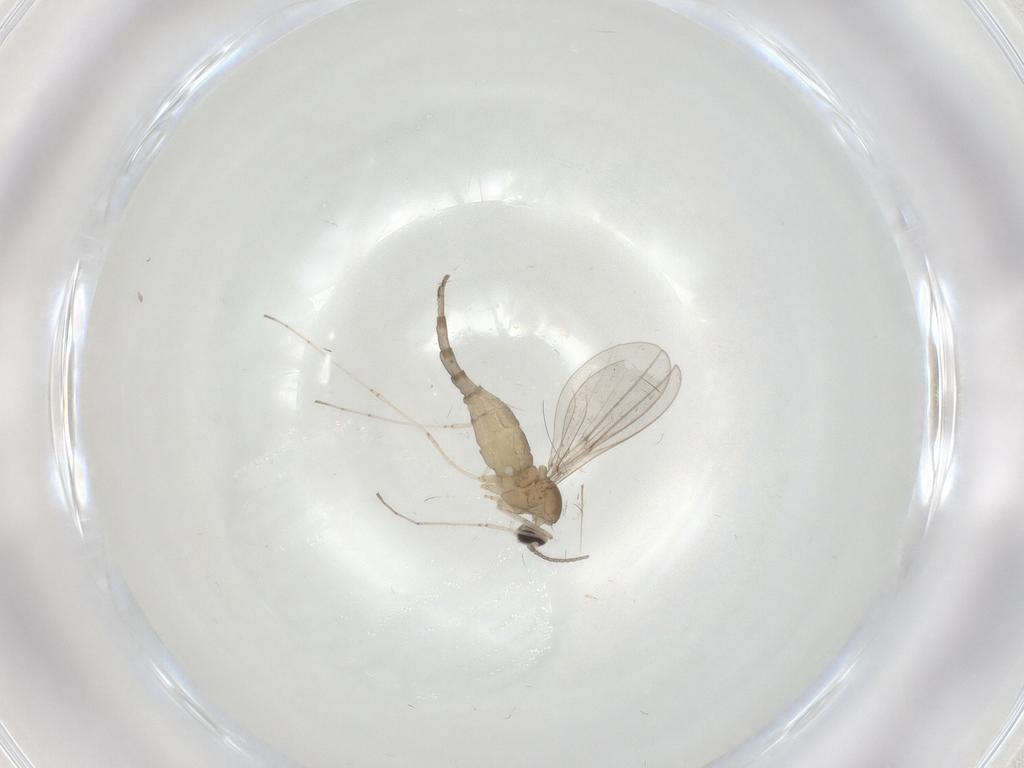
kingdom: Animalia
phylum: Arthropoda
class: Insecta
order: Diptera
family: Cecidomyiidae
